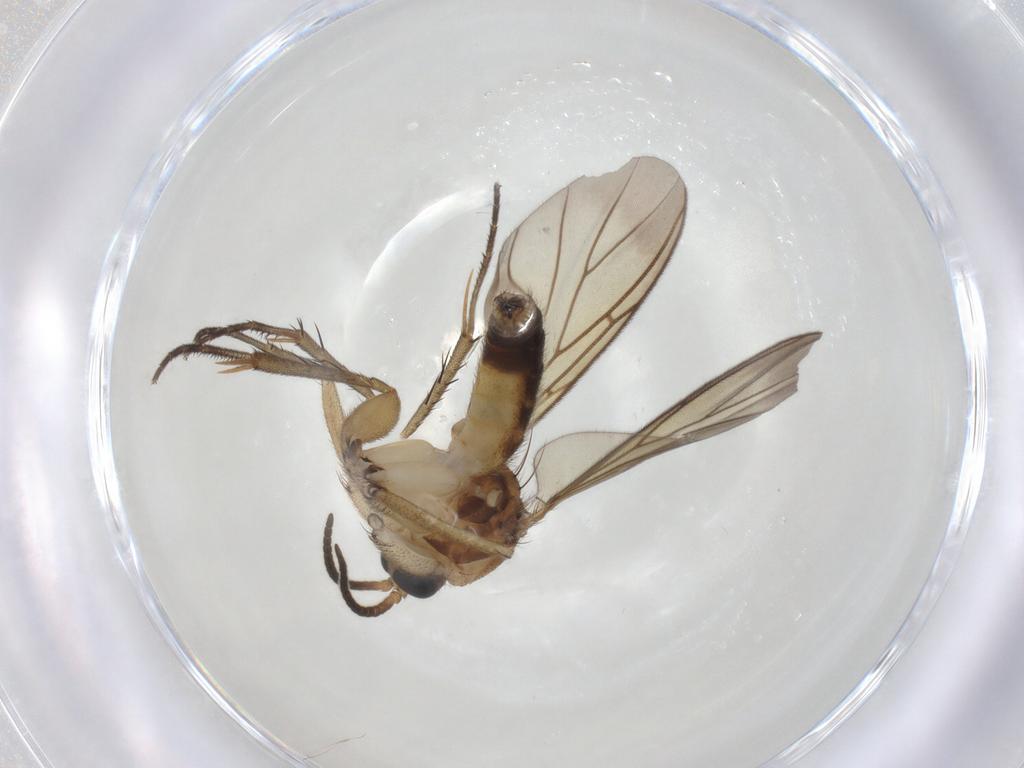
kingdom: Animalia
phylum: Arthropoda
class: Insecta
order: Diptera
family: Mycetophilidae
